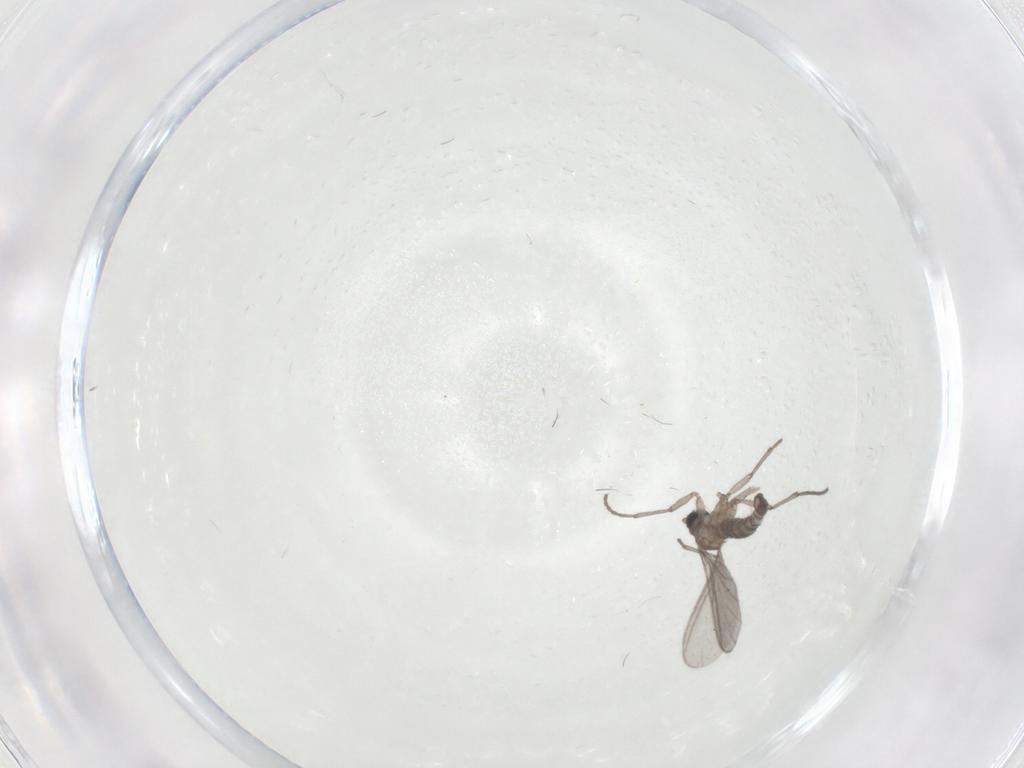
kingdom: Animalia
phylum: Arthropoda
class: Insecta
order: Diptera
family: Sciaridae
